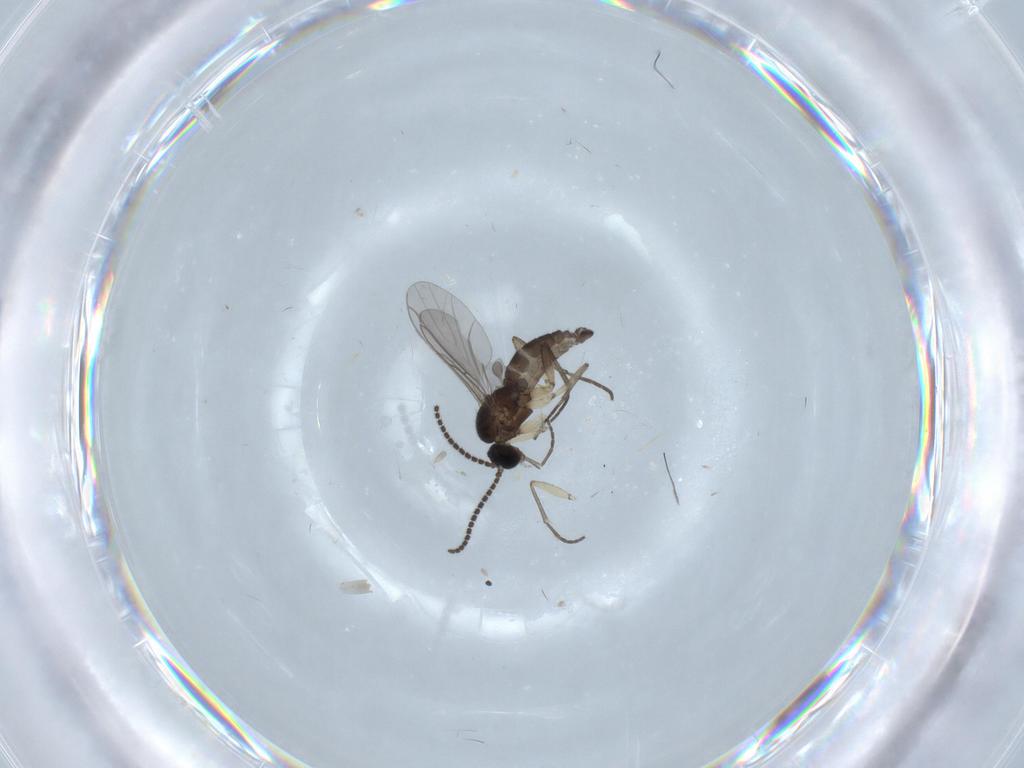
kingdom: Animalia
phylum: Arthropoda
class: Insecta
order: Diptera
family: Sciaridae
